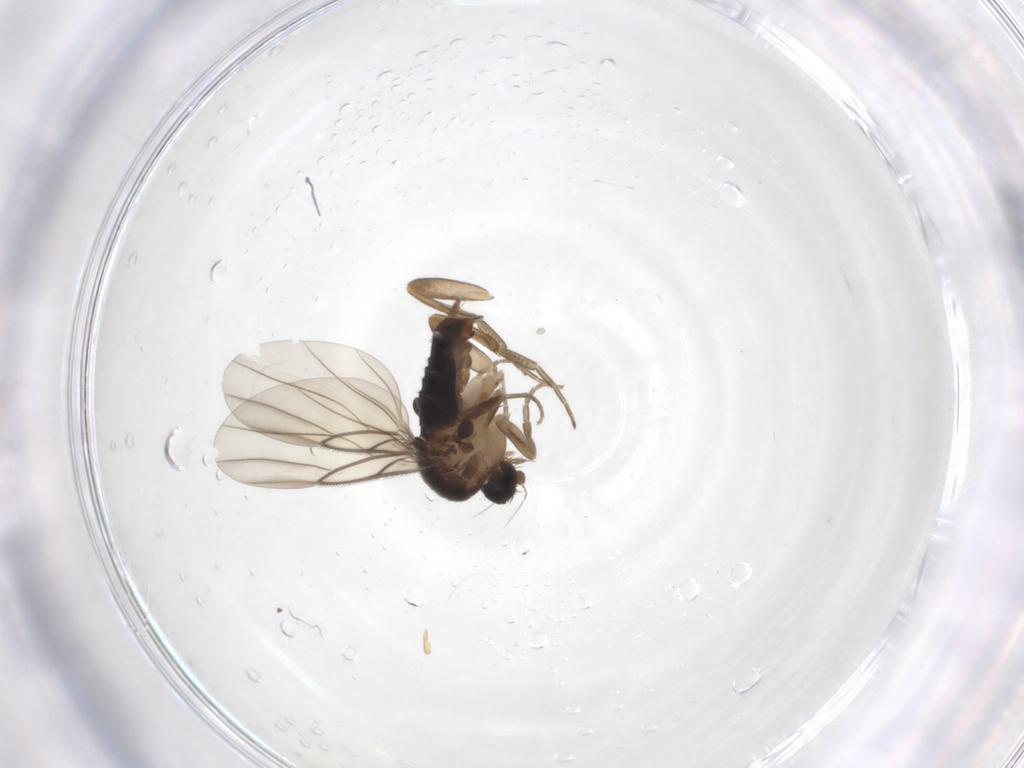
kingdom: Animalia
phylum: Arthropoda
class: Insecta
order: Diptera
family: Phoridae
